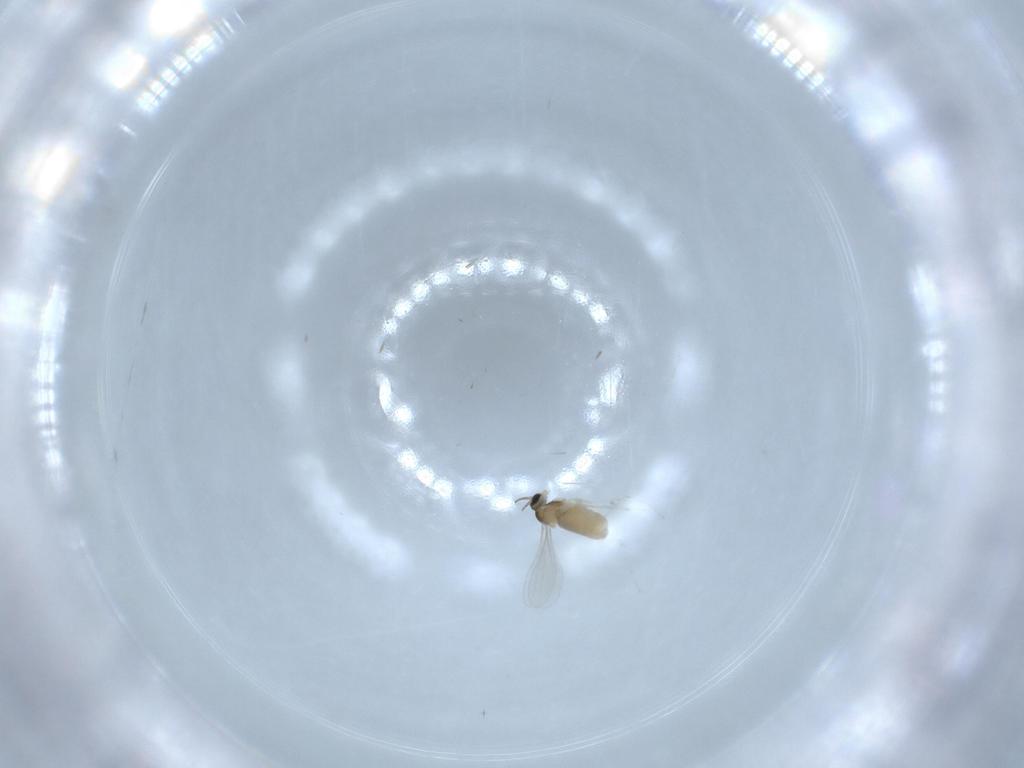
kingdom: Animalia
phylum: Arthropoda
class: Insecta
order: Diptera
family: Chironomidae
